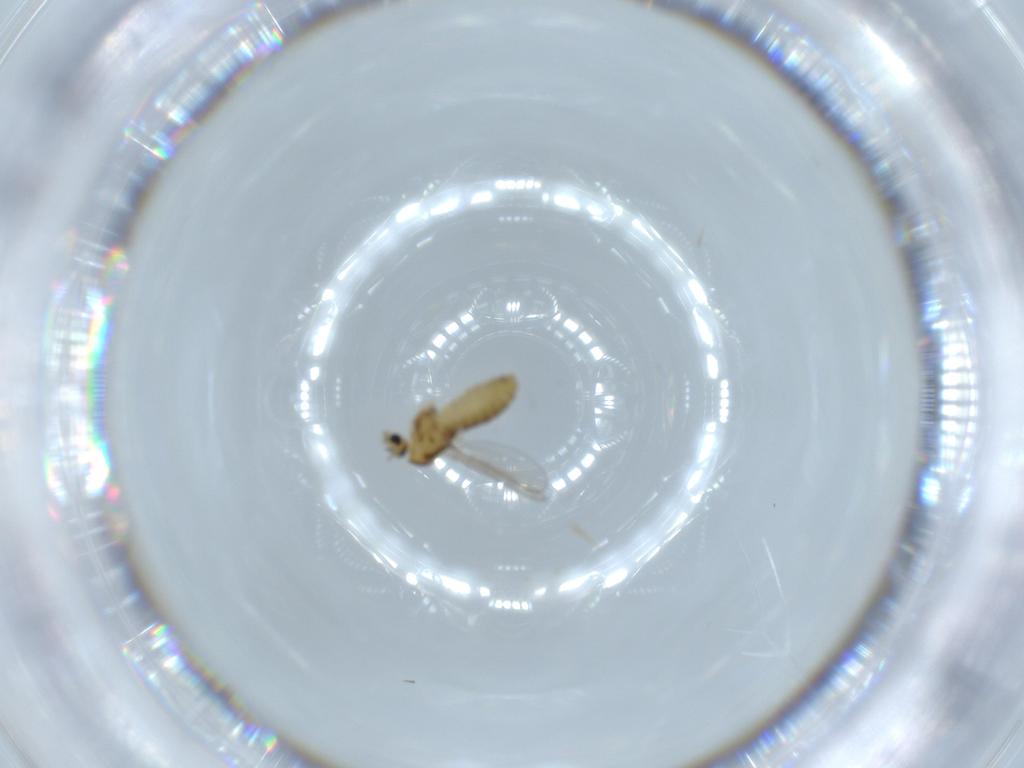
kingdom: Animalia
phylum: Arthropoda
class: Insecta
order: Diptera
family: Chironomidae
